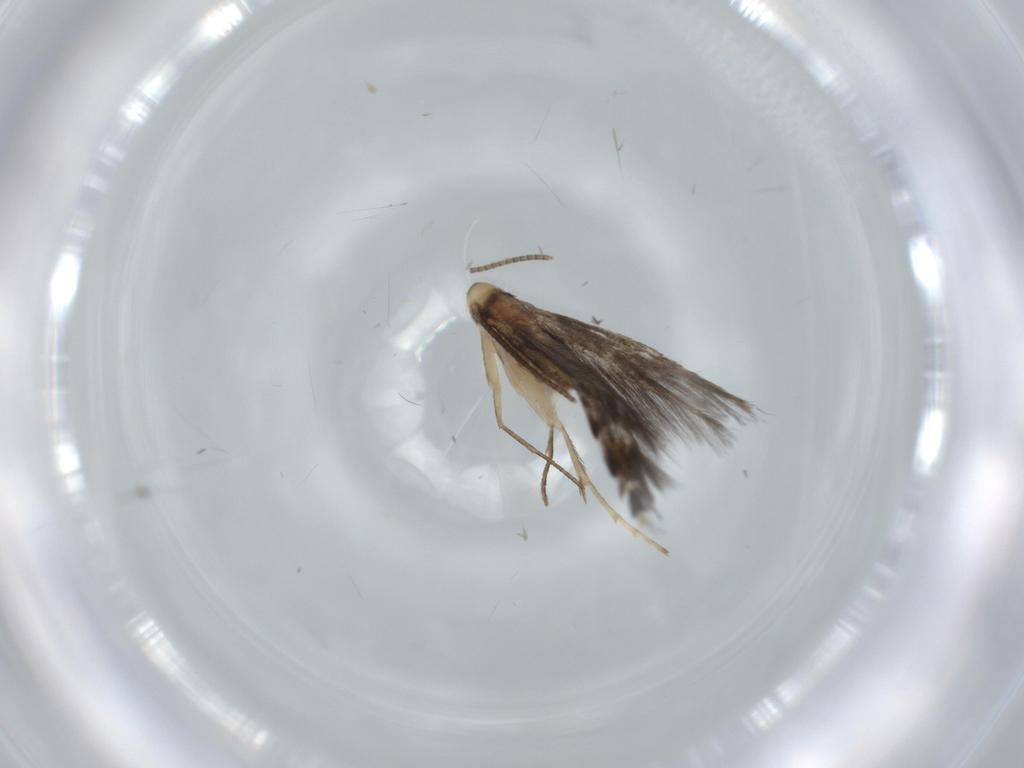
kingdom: Animalia
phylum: Arthropoda
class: Insecta
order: Lepidoptera
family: Gracillariidae
